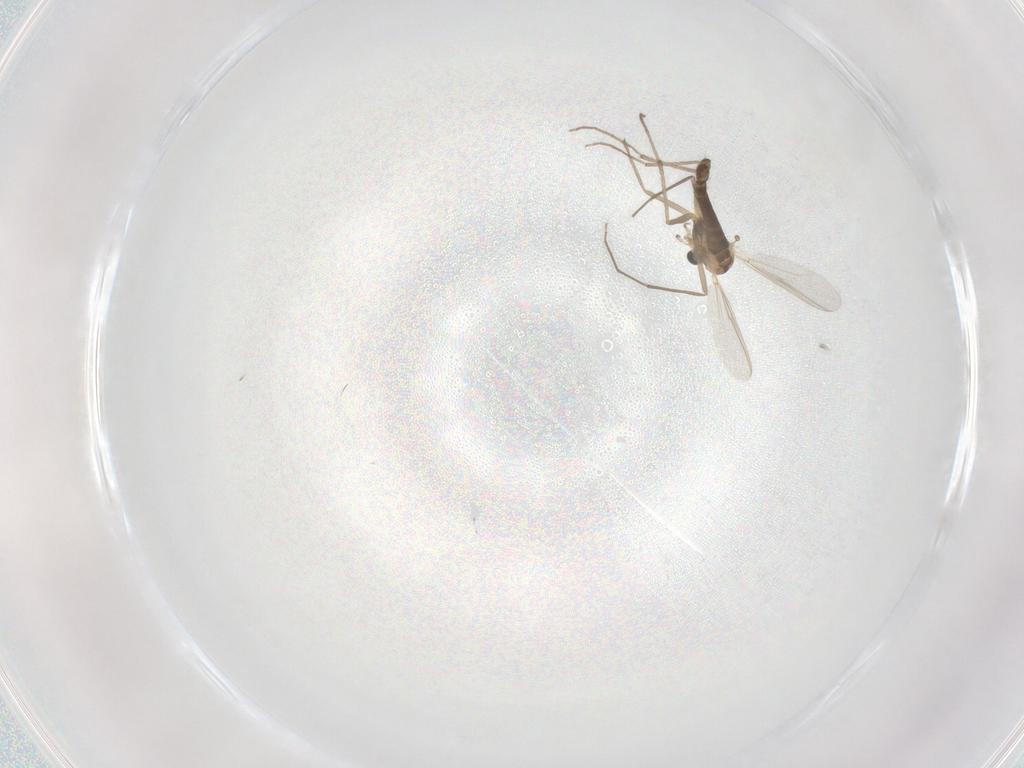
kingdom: Animalia
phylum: Arthropoda
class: Insecta
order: Diptera
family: Chironomidae
